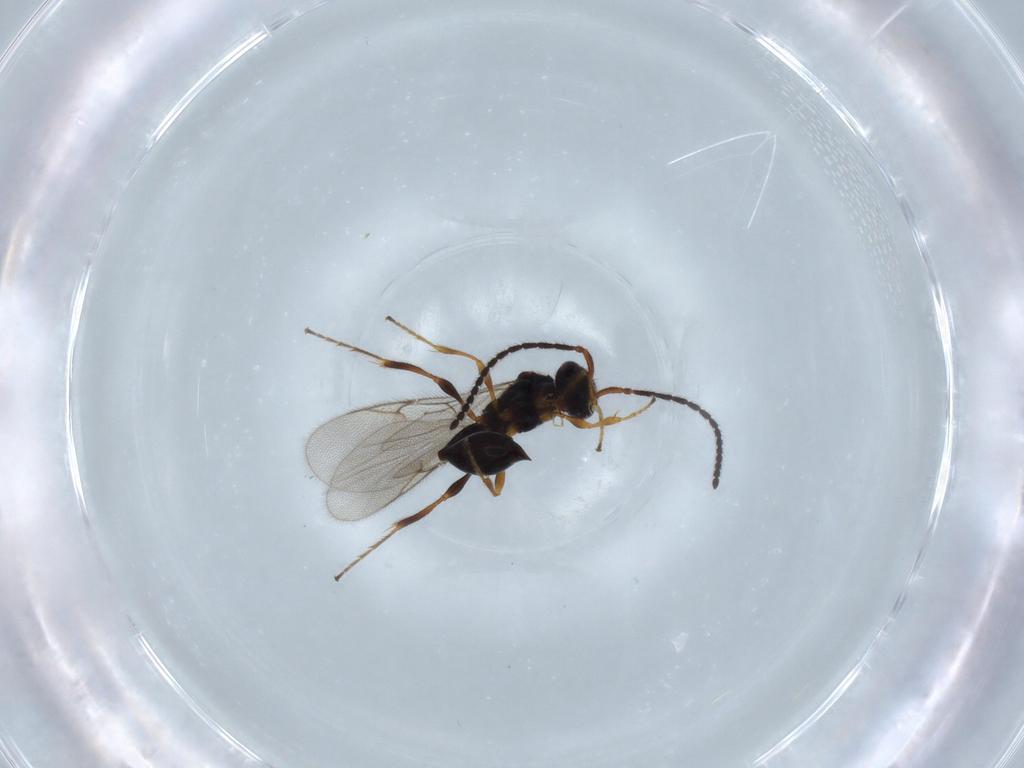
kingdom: Animalia
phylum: Arthropoda
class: Insecta
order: Hymenoptera
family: Diapriidae
